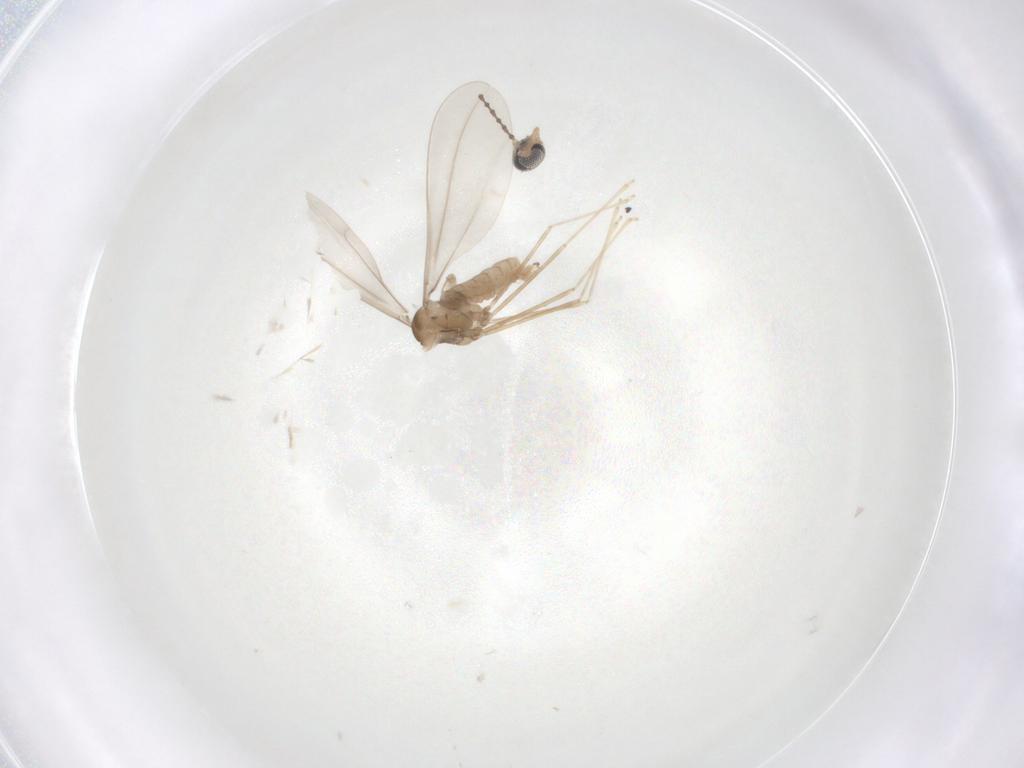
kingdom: Animalia
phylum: Arthropoda
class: Insecta
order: Diptera
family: Cecidomyiidae
